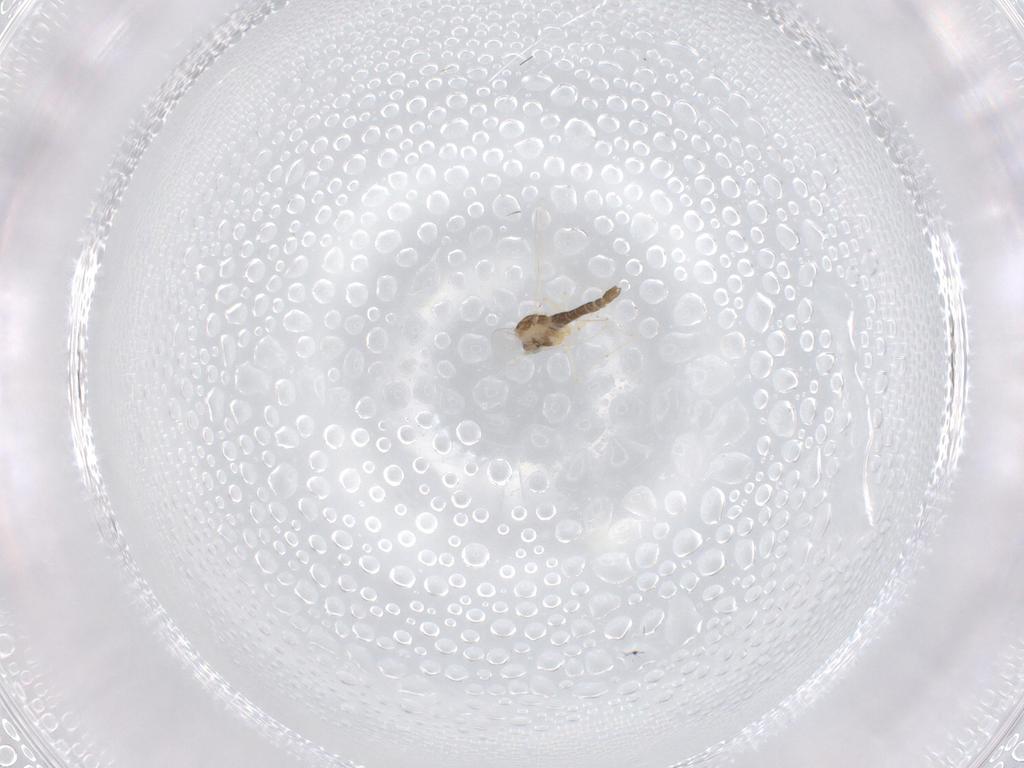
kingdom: Animalia
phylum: Arthropoda
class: Insecta
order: Diptera
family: Chironomidae
